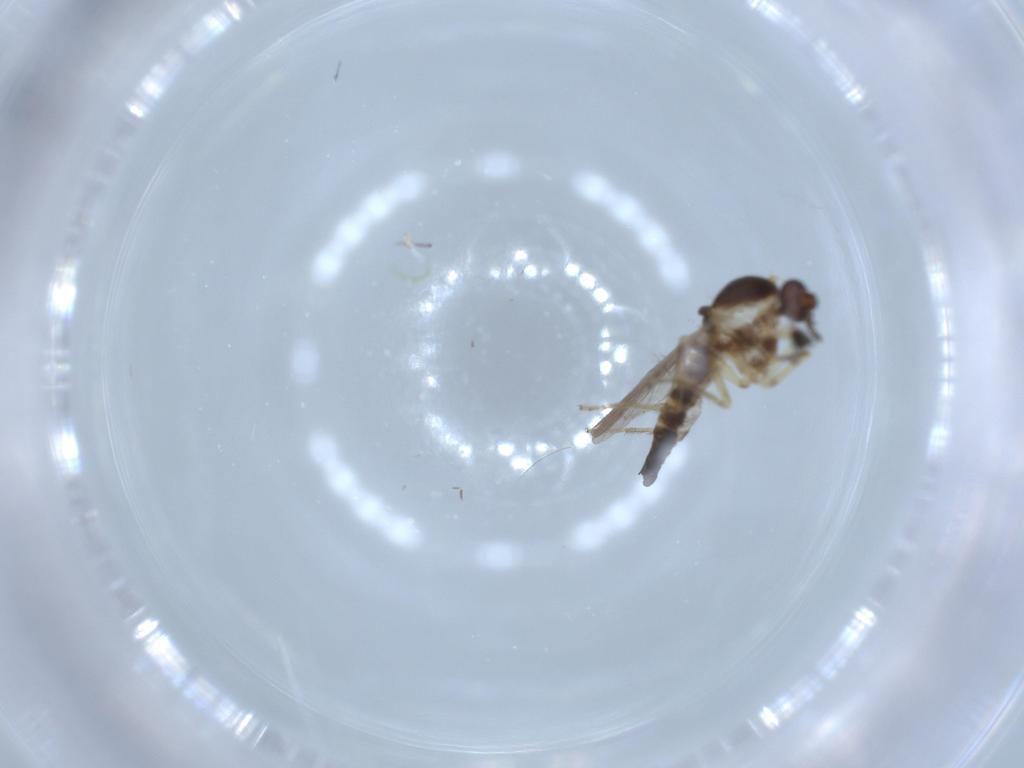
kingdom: Animalia
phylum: Arthropoda
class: Insecta
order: Diptera
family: Ceratopogonidae
